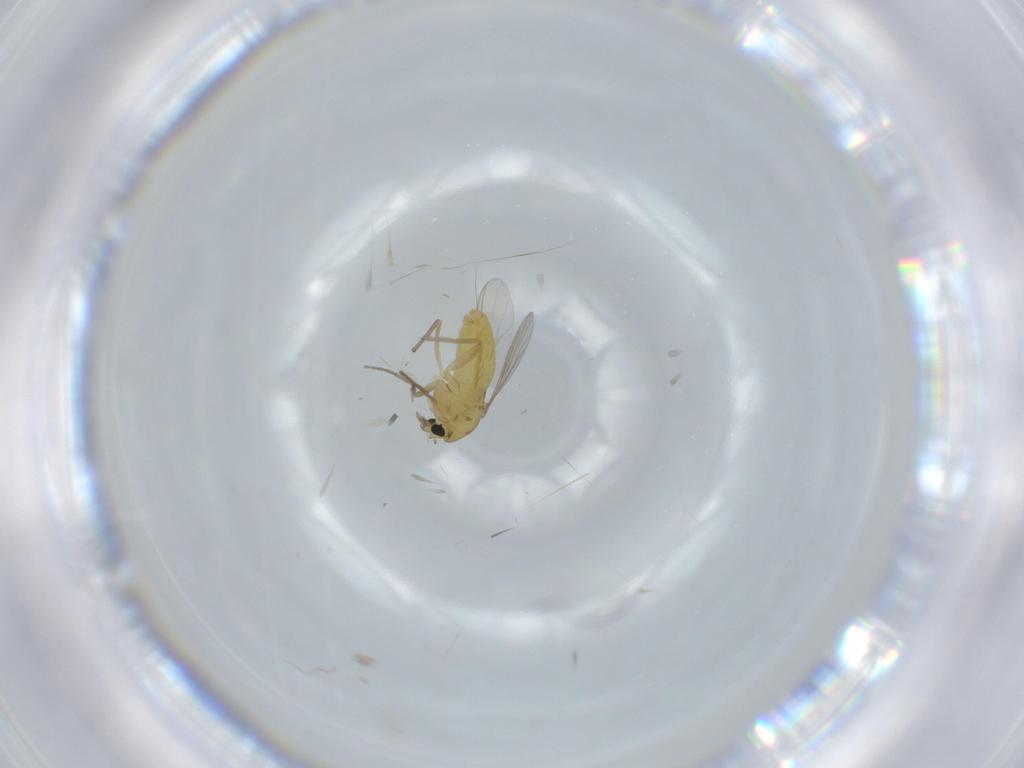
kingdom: Animalia
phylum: Arthropoda
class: Insecta
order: Diptera
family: Chironomidae
